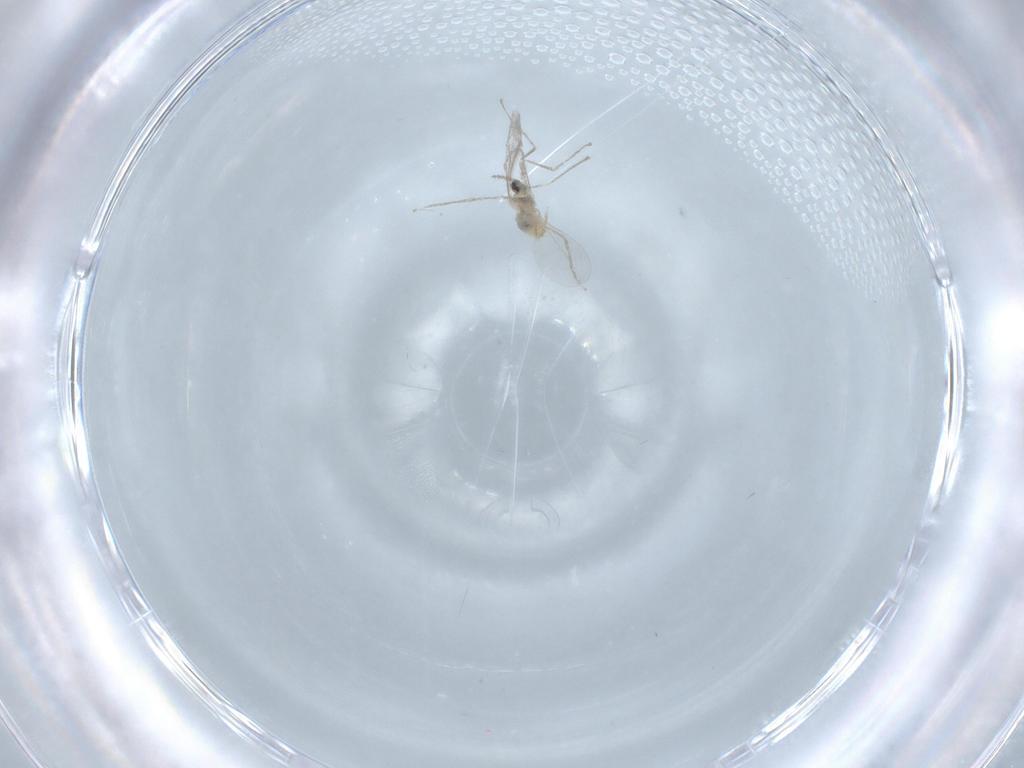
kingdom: Animalia
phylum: Arthropoda
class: Insecta
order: Diptera
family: Cecidomyiidae
